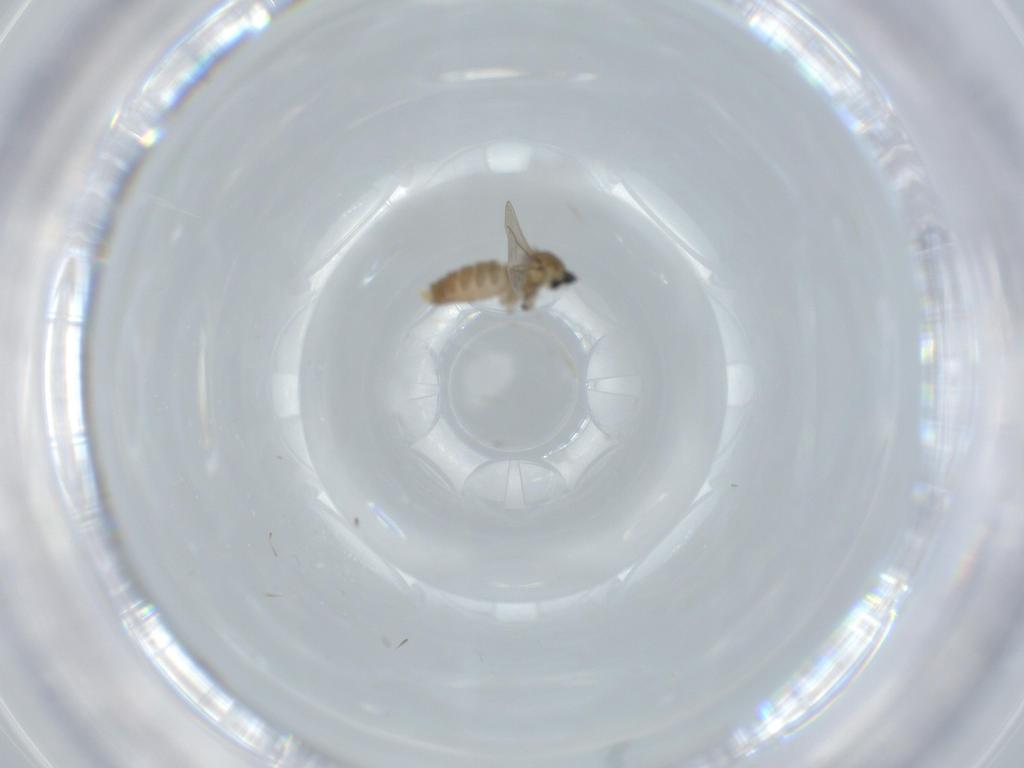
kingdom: Animalia
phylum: Arthropoda
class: Insecta
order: Diptera
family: Cecidomyiidae
